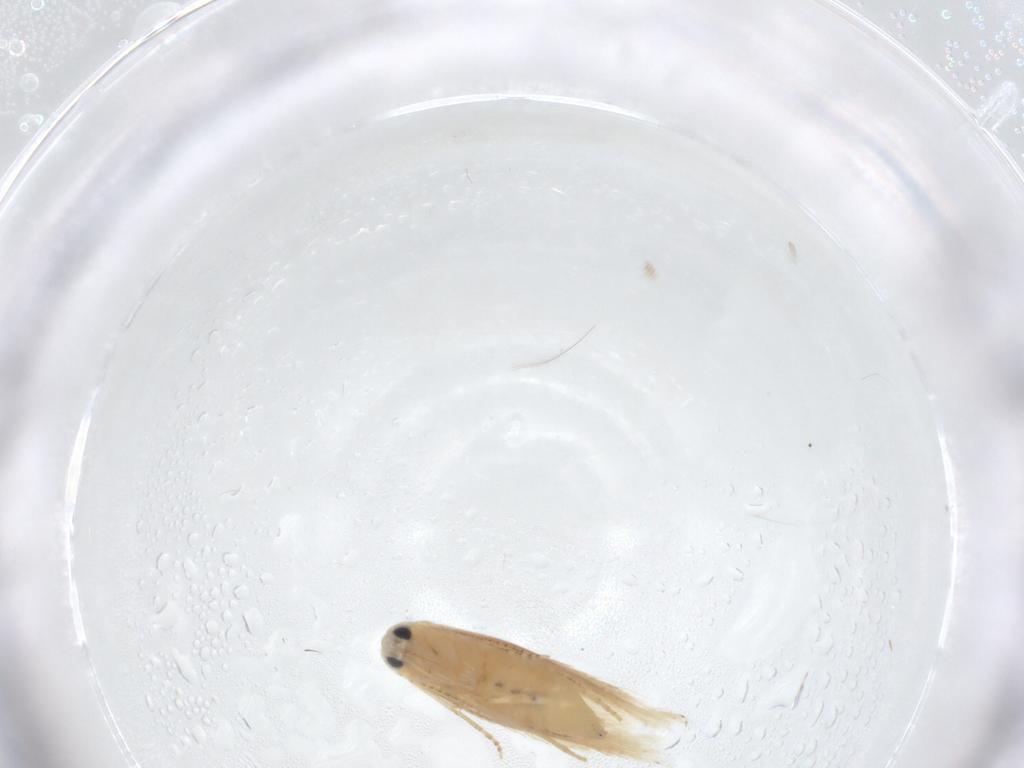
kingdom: Animalia
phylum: Arthropoda
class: Insecta
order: Lepidoptera
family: Depressariidae
